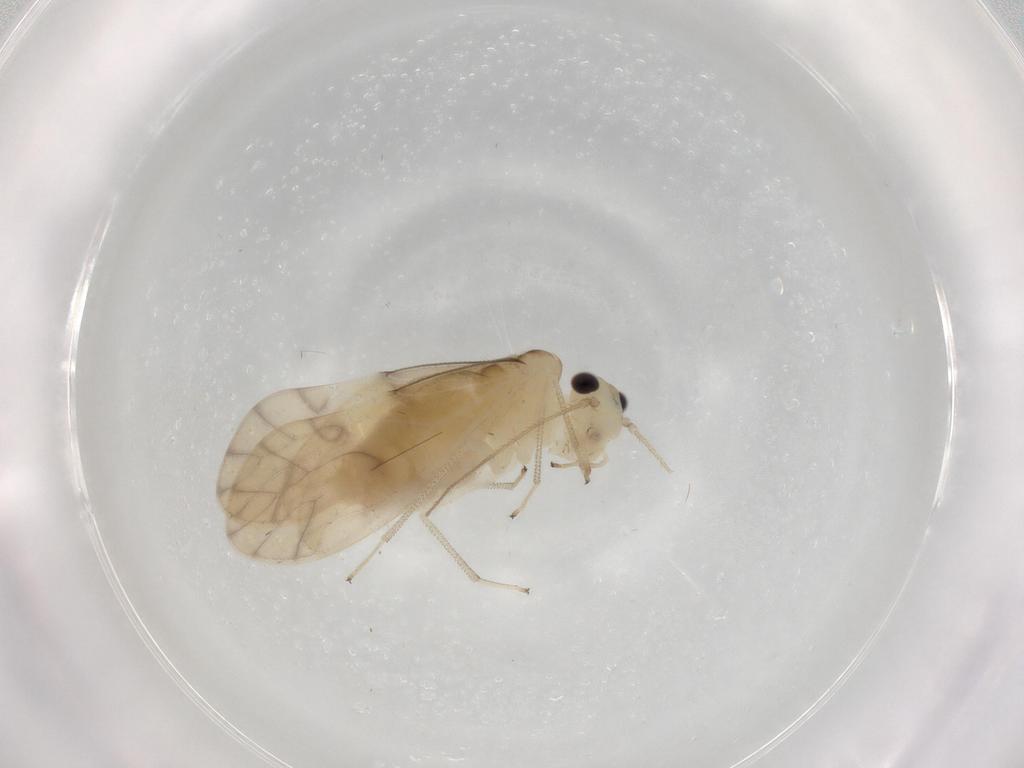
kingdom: Animalia
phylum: Arthropoda
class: Insecta
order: Psocodea
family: Caeciliusidae
